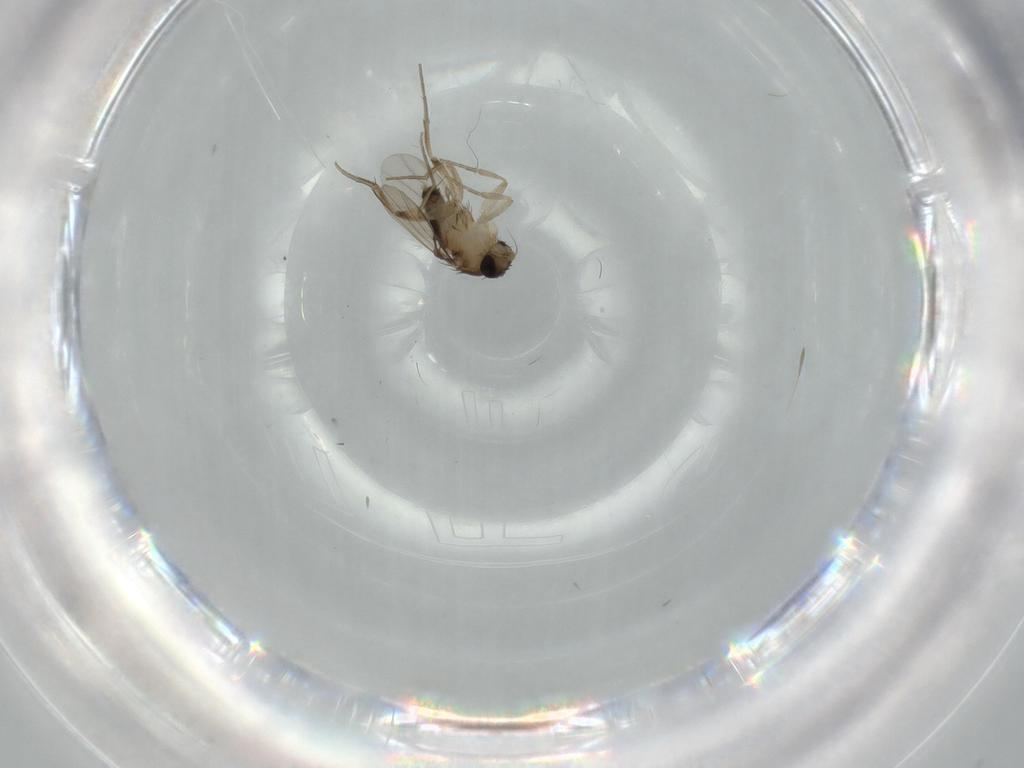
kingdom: Animalia
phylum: Arthropoda
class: Insecta
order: Diptera
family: Phoridae
